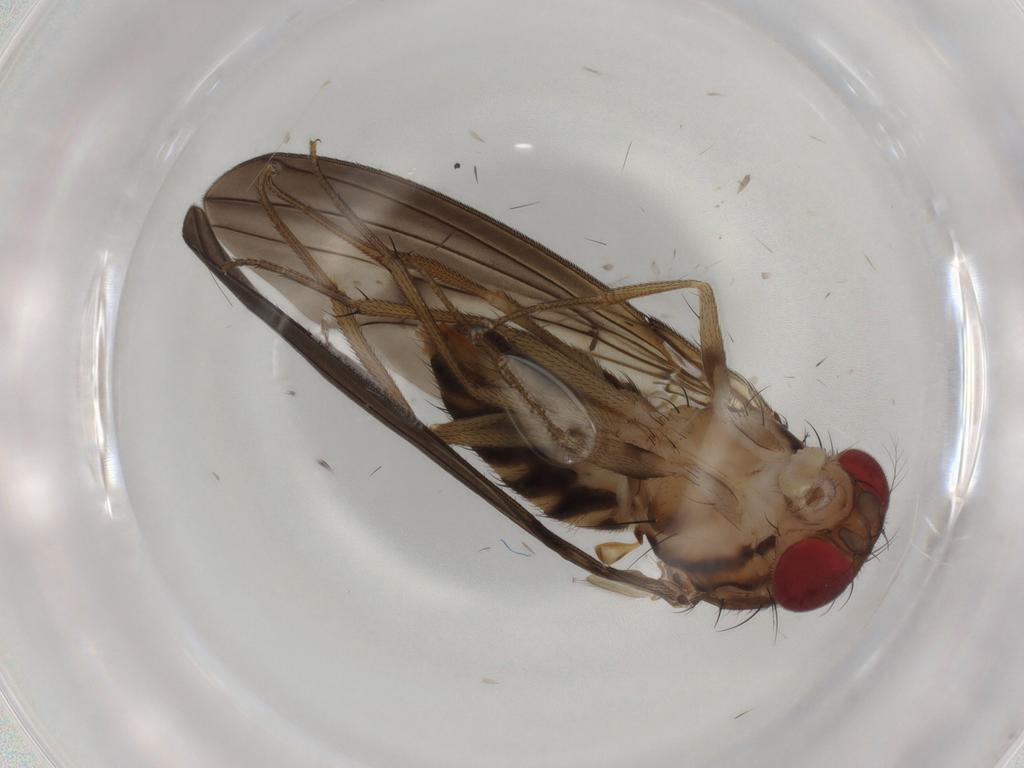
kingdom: Animalia
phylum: Arthropoda
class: Insecta
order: Diptera
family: Drosophilidae
